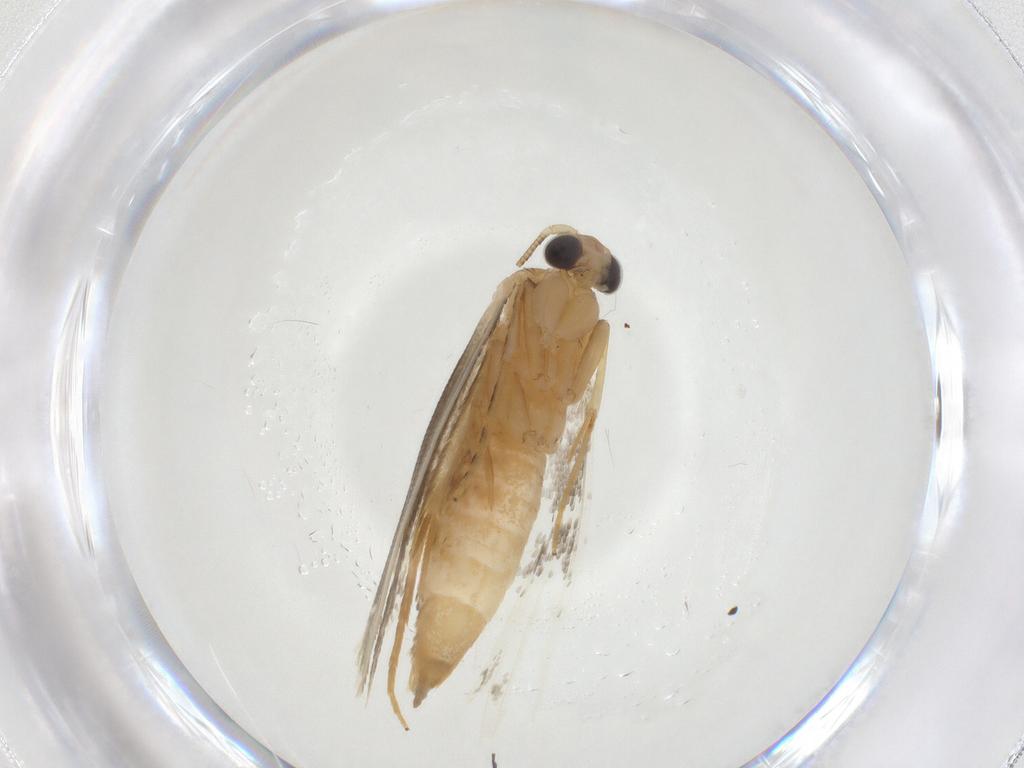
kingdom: Animalia
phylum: Arthropoda
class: Insecta
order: Lepidoptera
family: Tineidae
